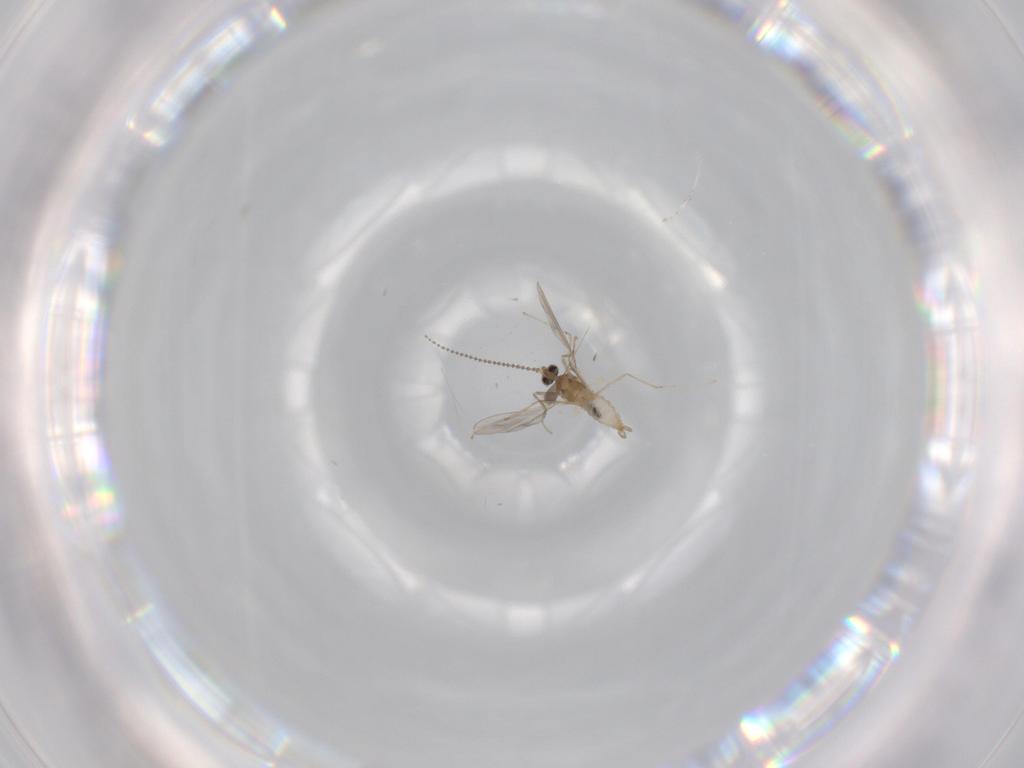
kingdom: Animalia
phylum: Arthropoda
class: Insecta
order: Diptera
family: Cecidomyiidae
